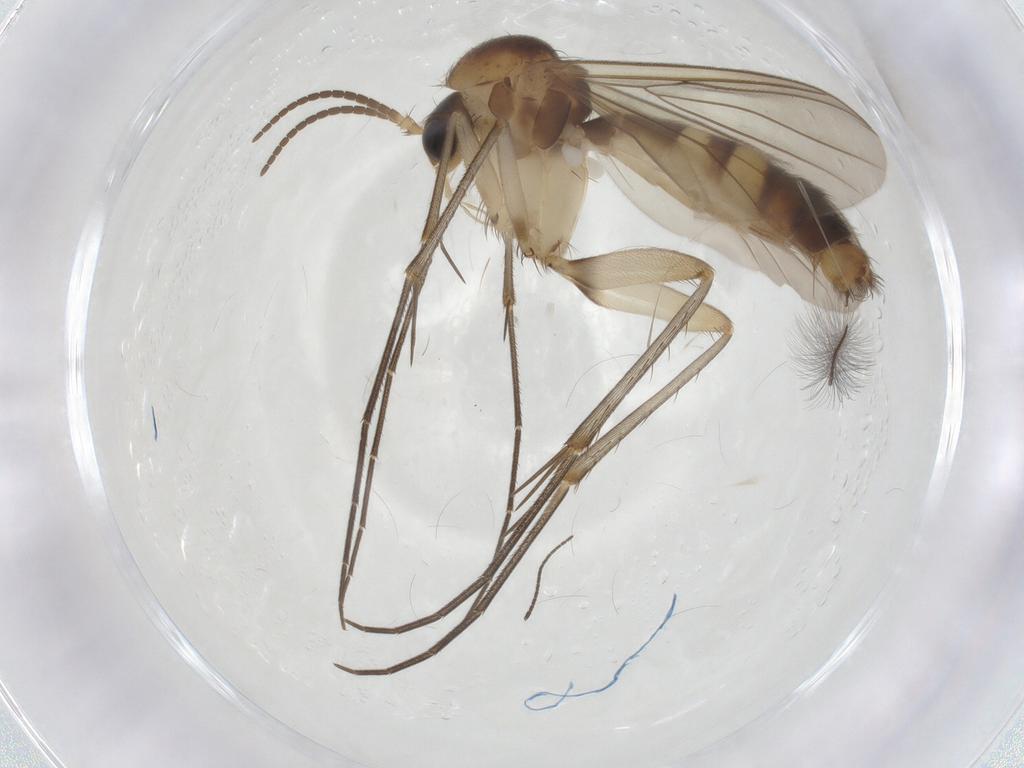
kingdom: Animalia
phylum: Arthropoda
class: Insecta
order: Diptera
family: Mycetophilidae
